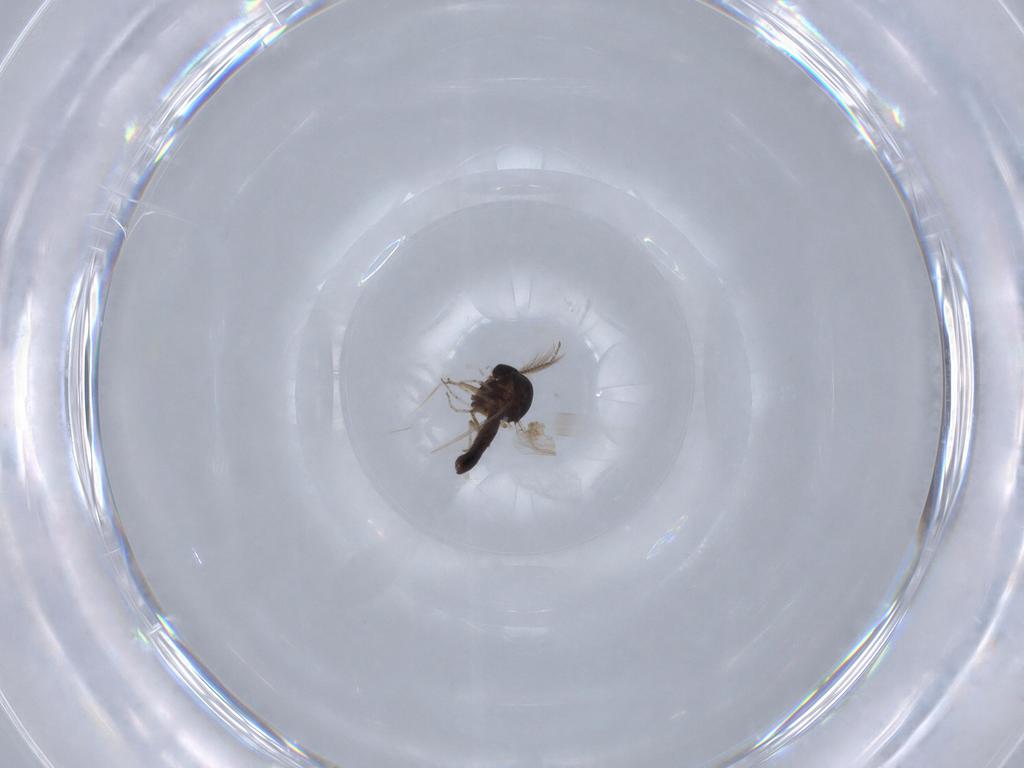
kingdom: Animalia
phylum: Arthropoda
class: Insecta
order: Diptera
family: Ceratopogonidae
